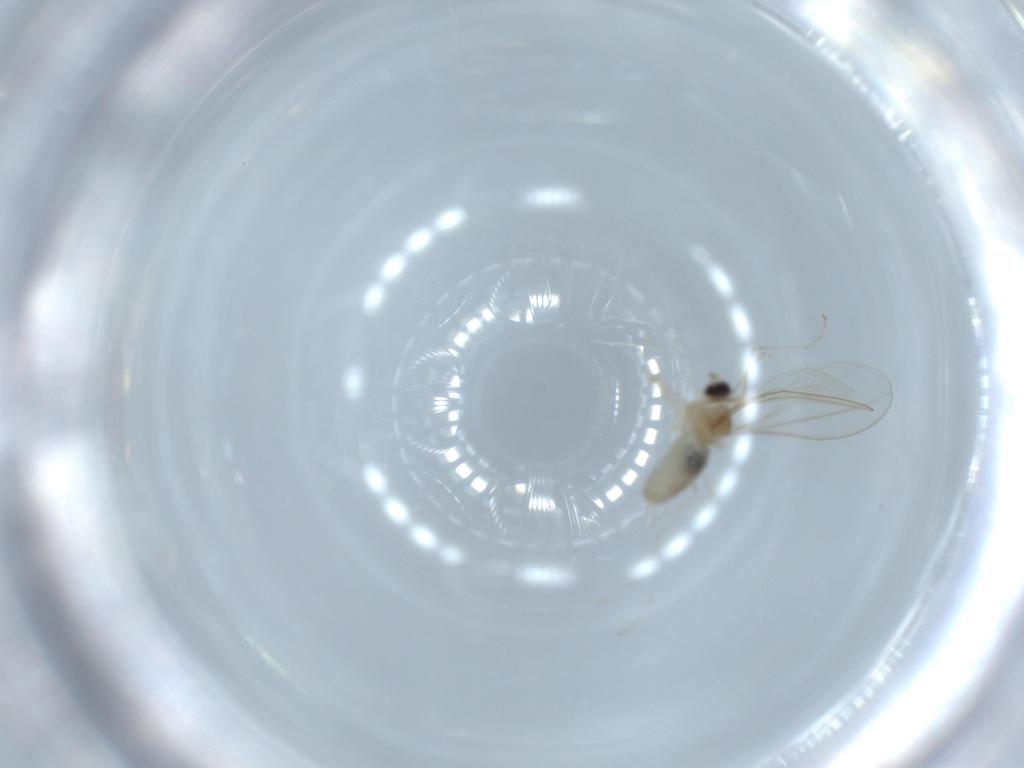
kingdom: Animalia
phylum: Arthropoda
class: Insecta
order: Diptera
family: Cecidomyiidae
